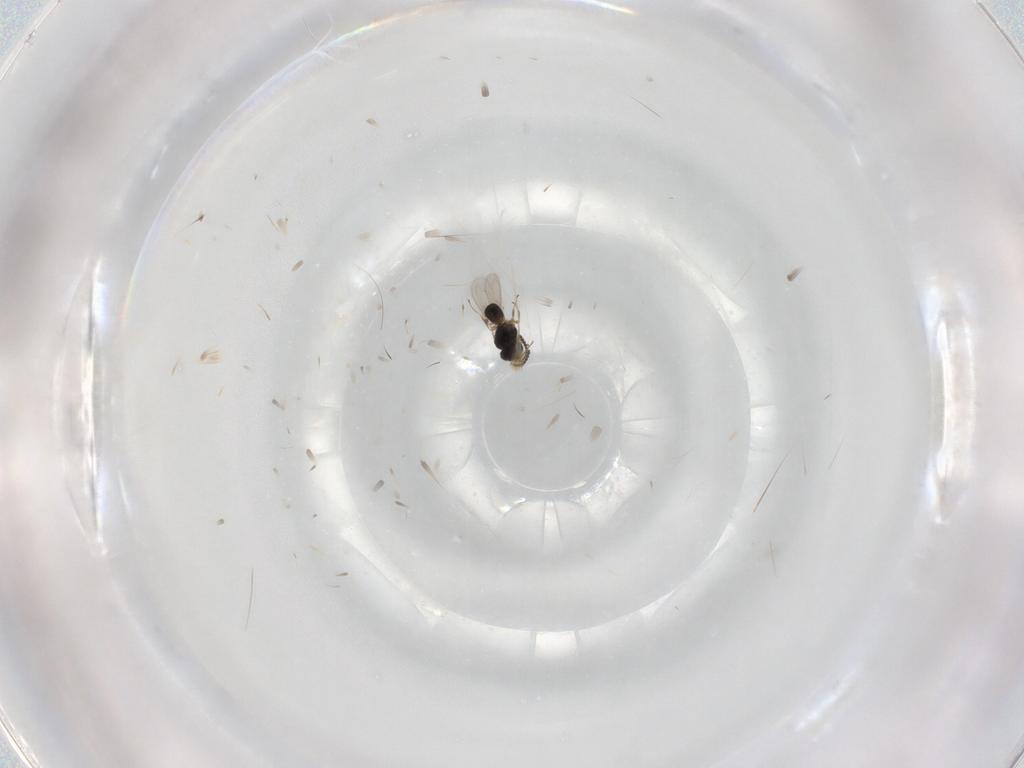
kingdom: Animalia
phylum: Arthropoda
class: Insecta
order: Hymenoptera
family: Scelionidae
